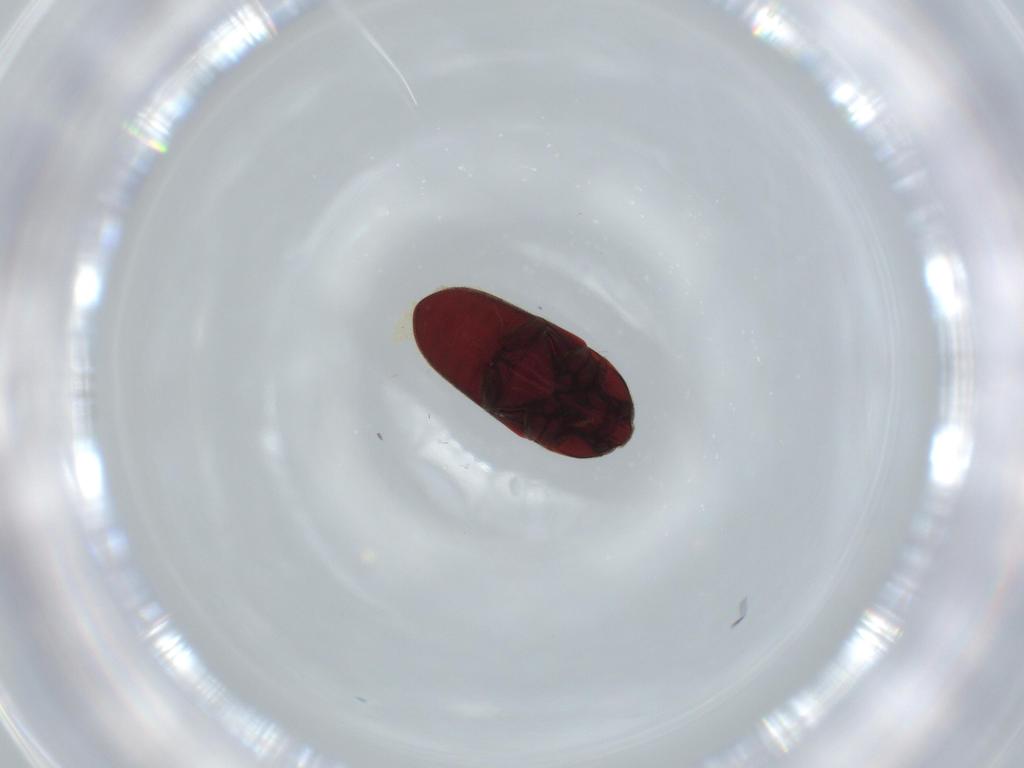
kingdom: Animalia
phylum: Arthropoda
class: Insecta
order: Coleoptera
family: Throscidae
